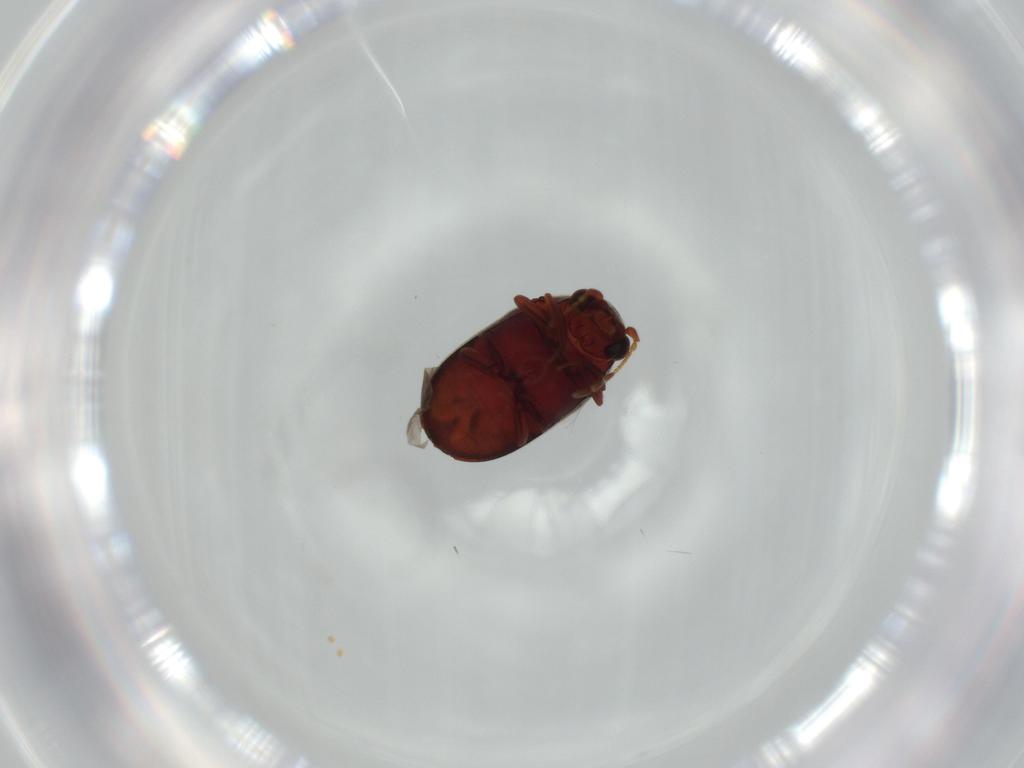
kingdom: Animalia
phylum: Arthropoda
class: Insecta
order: Coleoptera
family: Ptinidae
